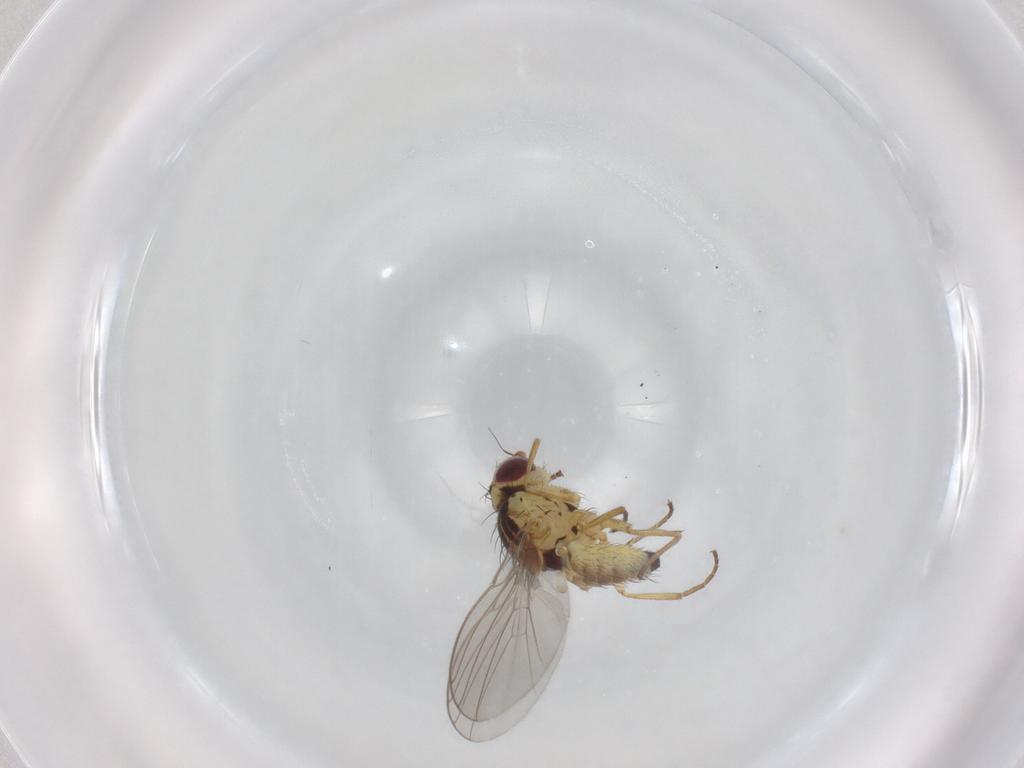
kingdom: Animalia
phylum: Arthropoda
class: Insecta
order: Diptera
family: Agromyzidae
